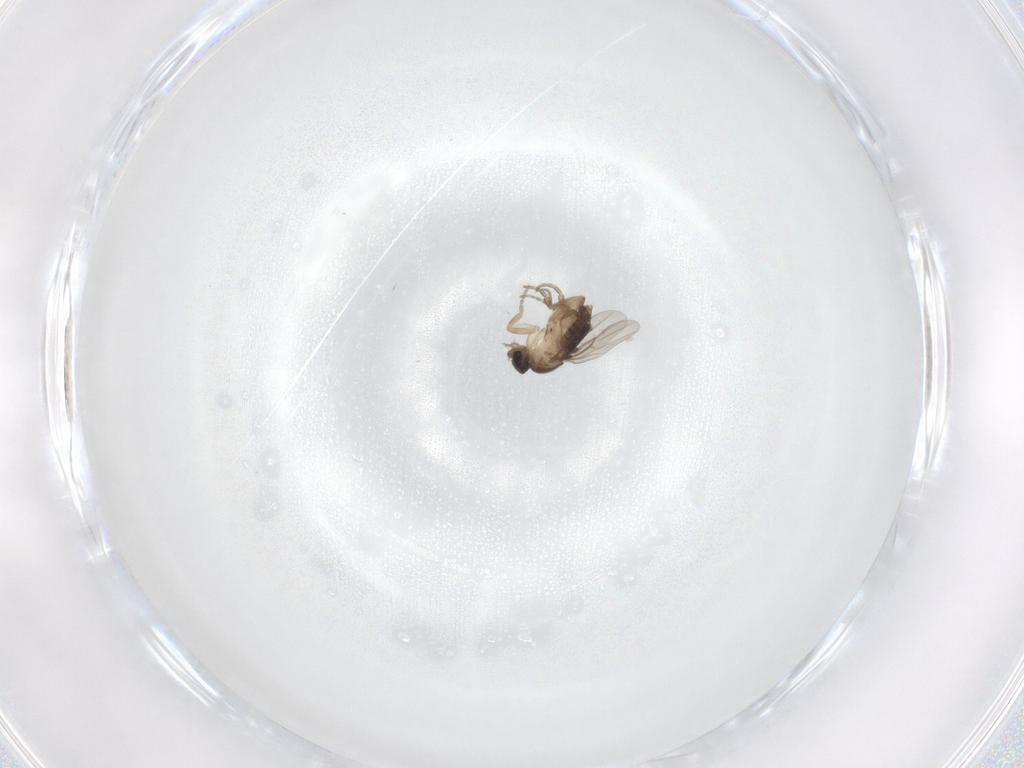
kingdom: Animalia
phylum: Arthropoda
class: Insecta
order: Diptera
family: Phoridae
